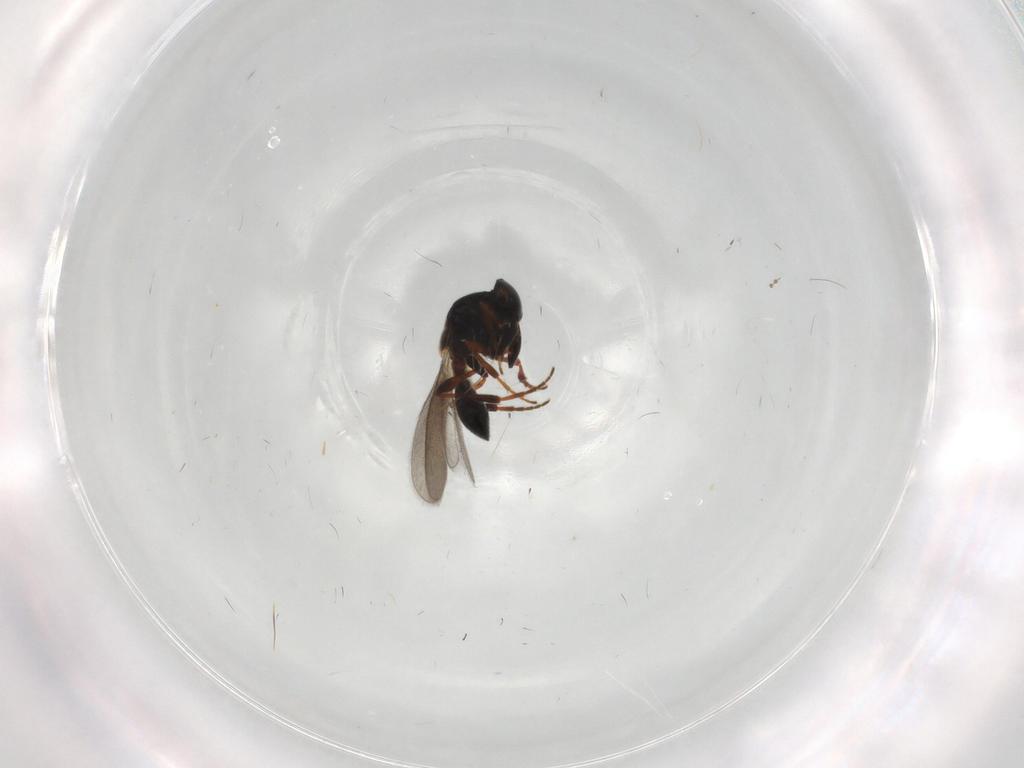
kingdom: Animalia
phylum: Arthropoda
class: Insecta
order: Hymenoptera
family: Platygastridae
